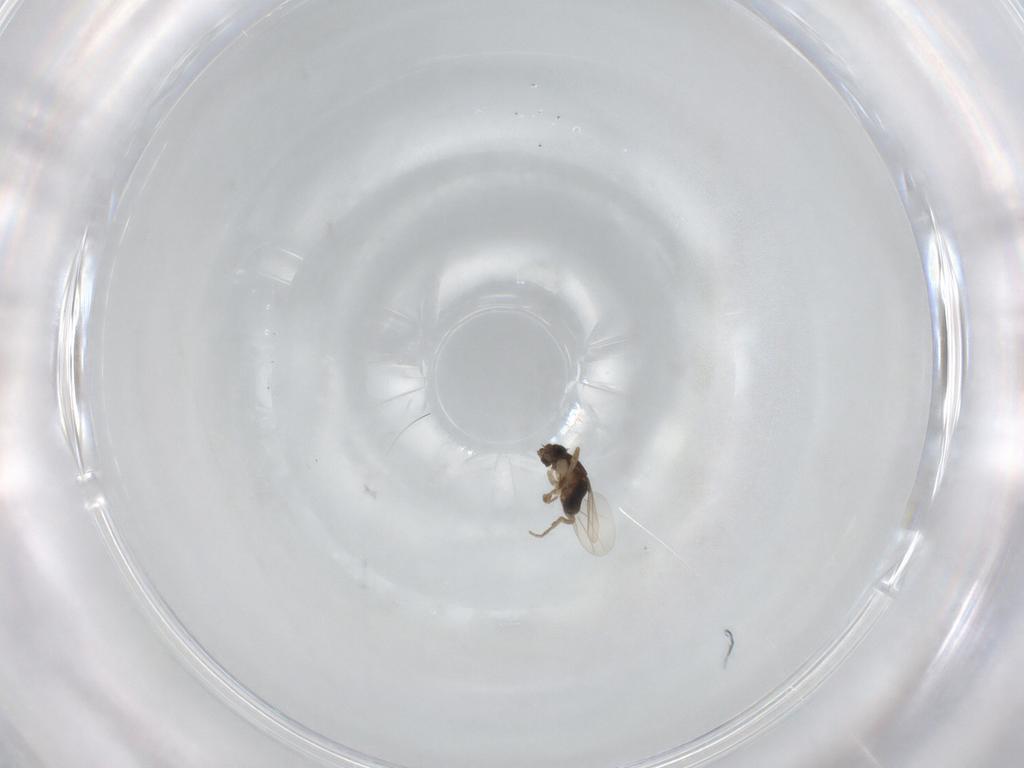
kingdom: Animalia
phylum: Arthropoda
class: Insecta
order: Diptera
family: Phoridae
